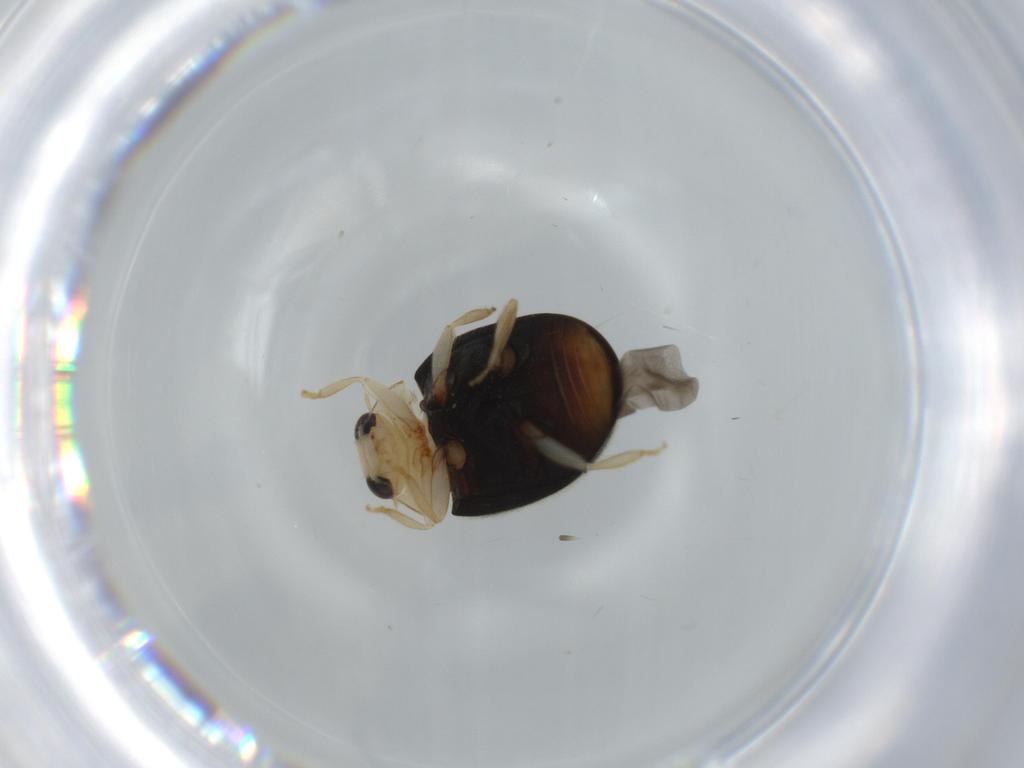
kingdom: Animalia
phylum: Arthropoda
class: Insecta
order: Coleoptera
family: Coccinellidae
